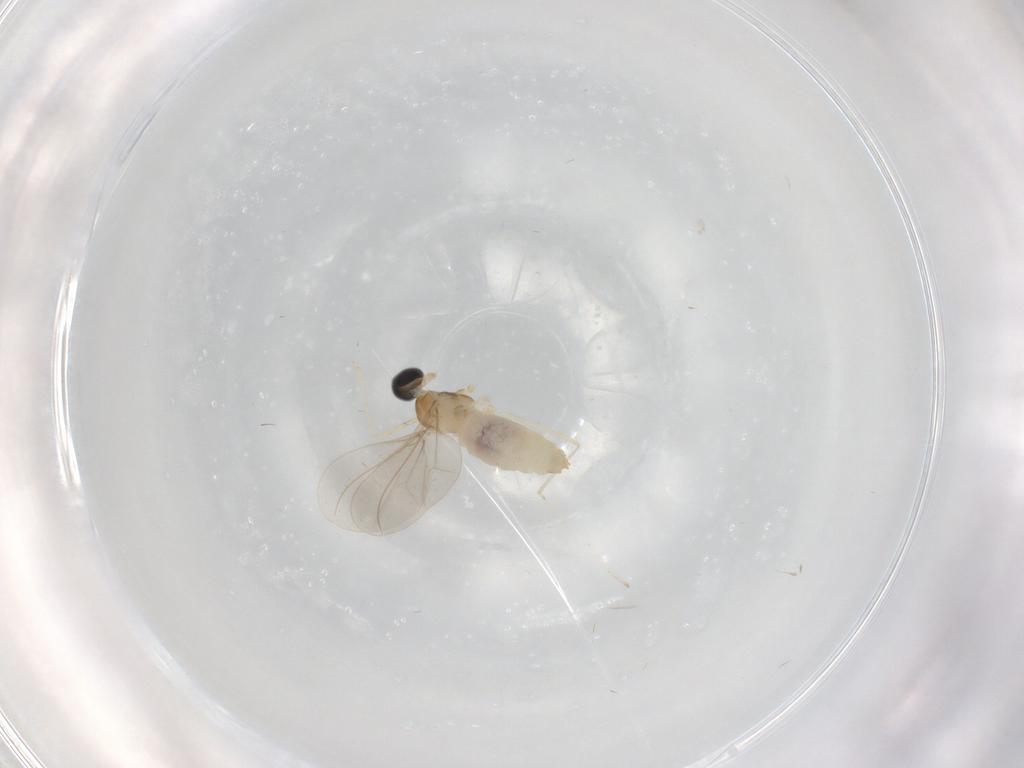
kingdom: Animalia
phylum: Arthropoda
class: Insecta
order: Diptera
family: Cecidomyiidae
